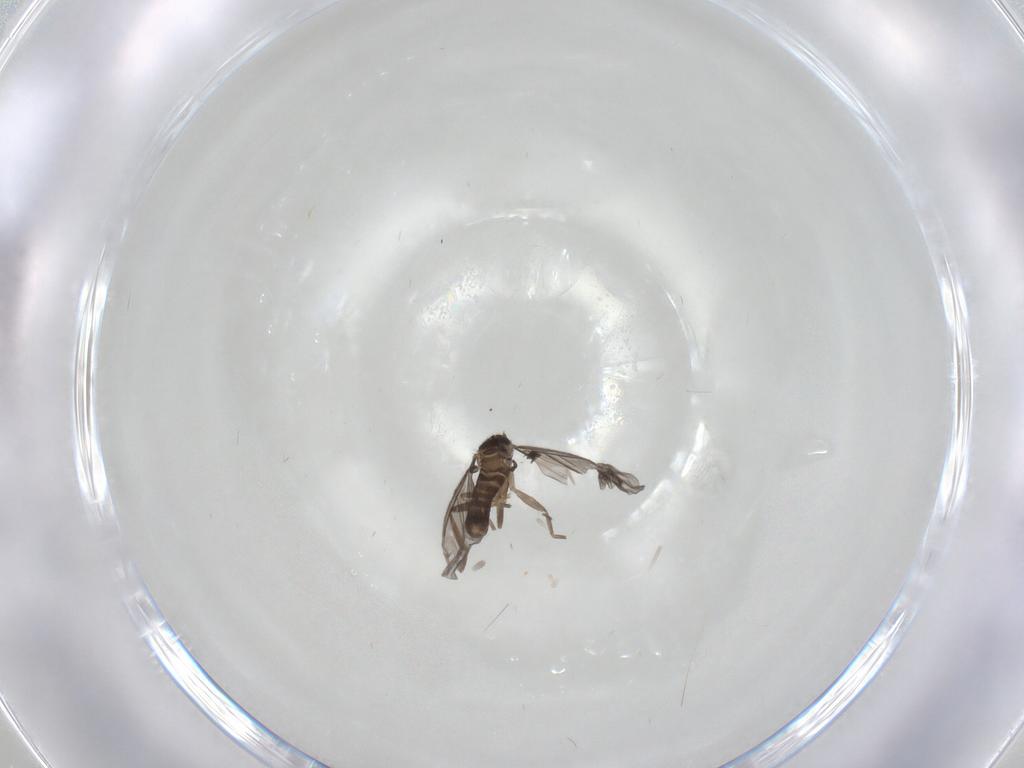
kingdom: Animalia
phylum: Arthropoda
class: Insecta
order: Diptera
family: Phoridae
